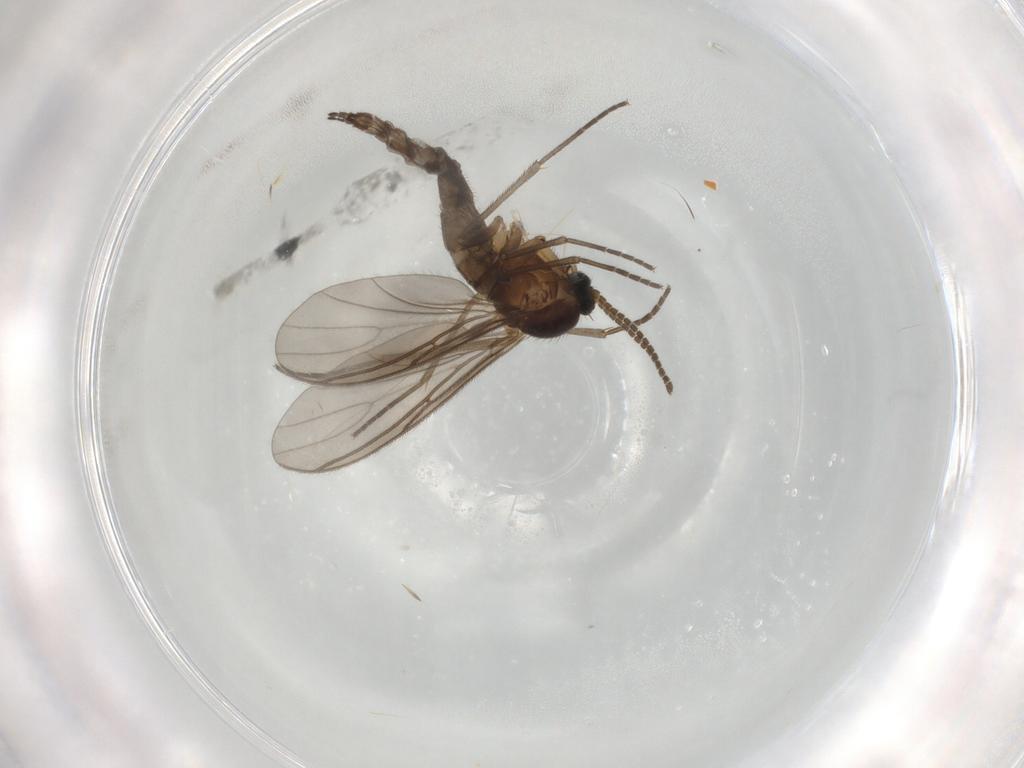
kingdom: Animalia
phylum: Arthropoda
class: Insecta
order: Diptera
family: Sciaridae
